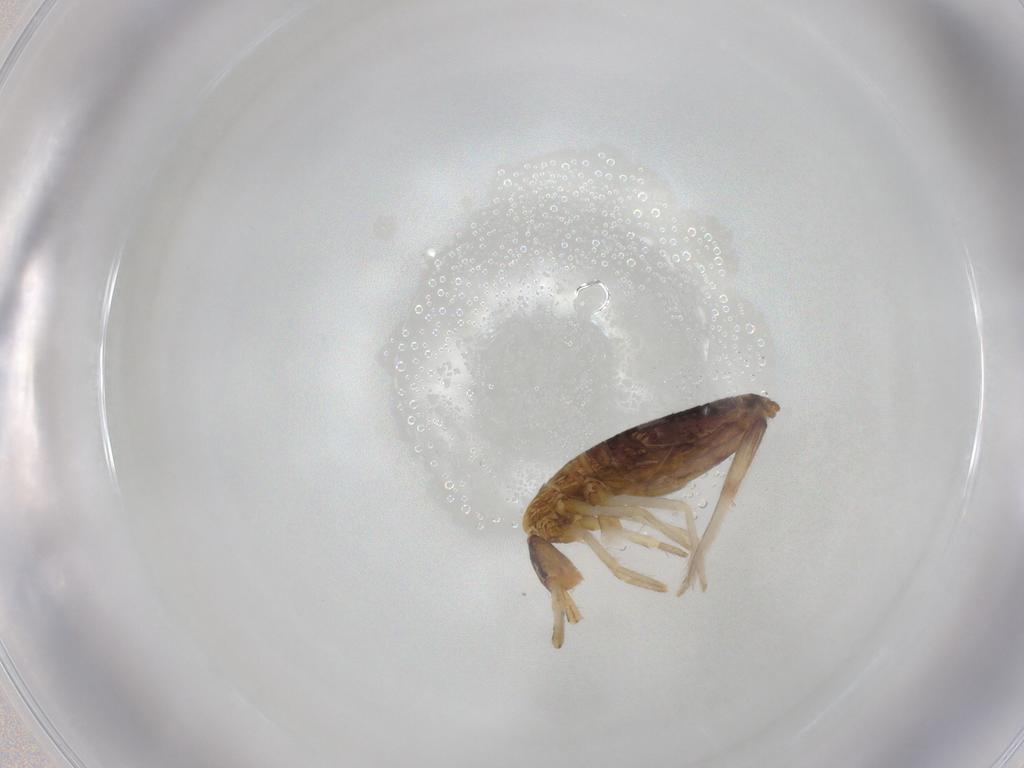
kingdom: Animalia
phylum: Arthropoda
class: Collembola
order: Entomobryomorpha
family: Entomobryidae
